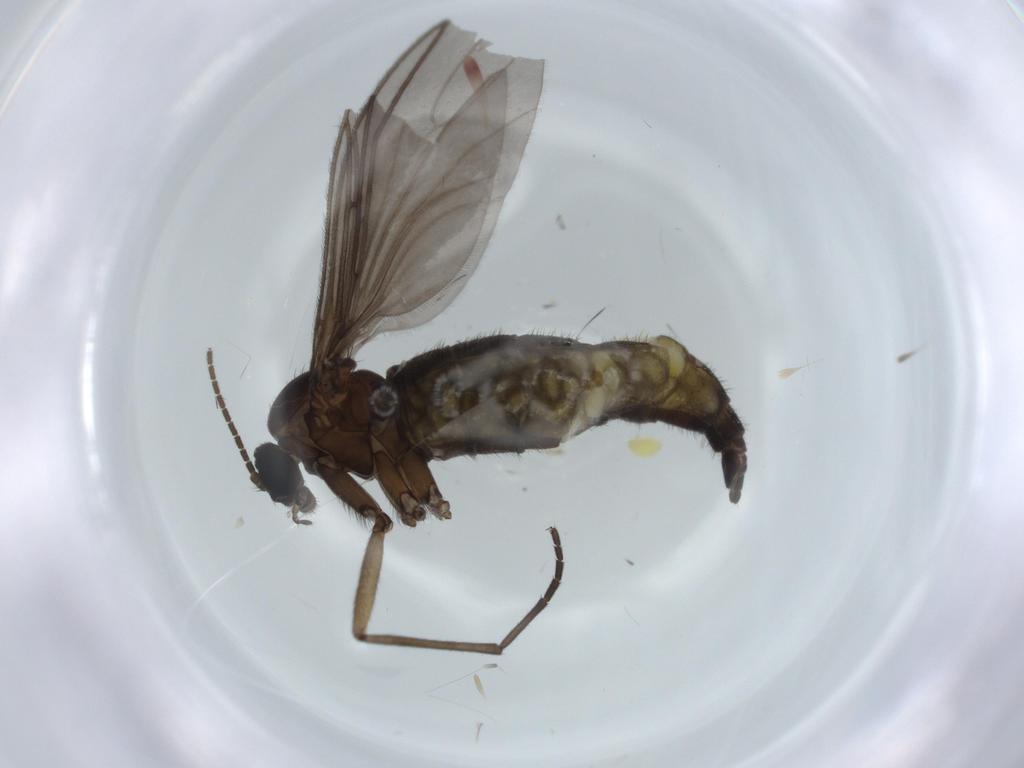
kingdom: Animalia
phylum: Arthropoda
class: Insecta
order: Diptera
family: Sciaridae
